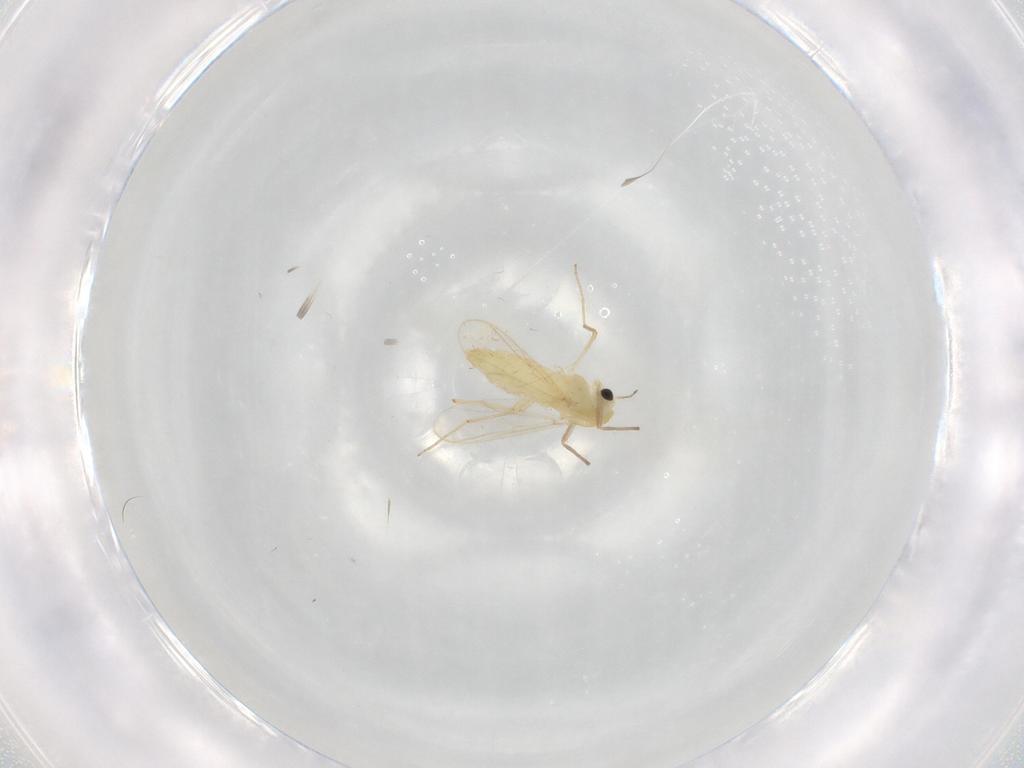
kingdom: Animalia
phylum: Arthropoda
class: Insecta
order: Diptera
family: Chironomidae
